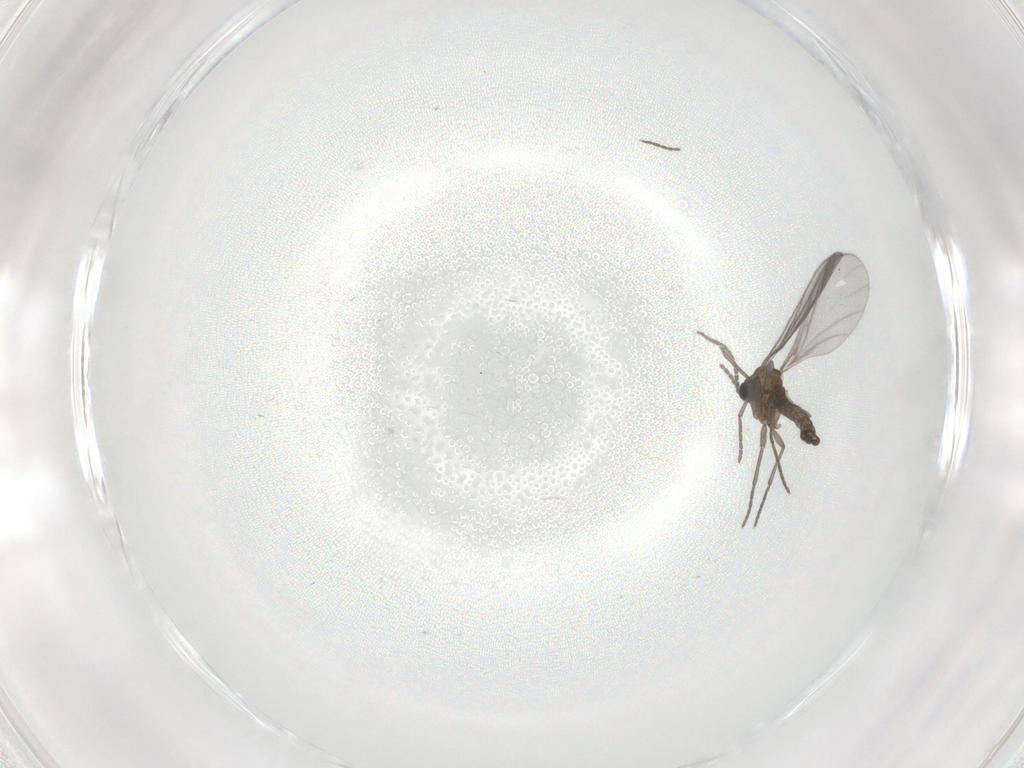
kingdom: Animalia
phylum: Arthropoda
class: Insecta
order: Diptera
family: Sciaridae
